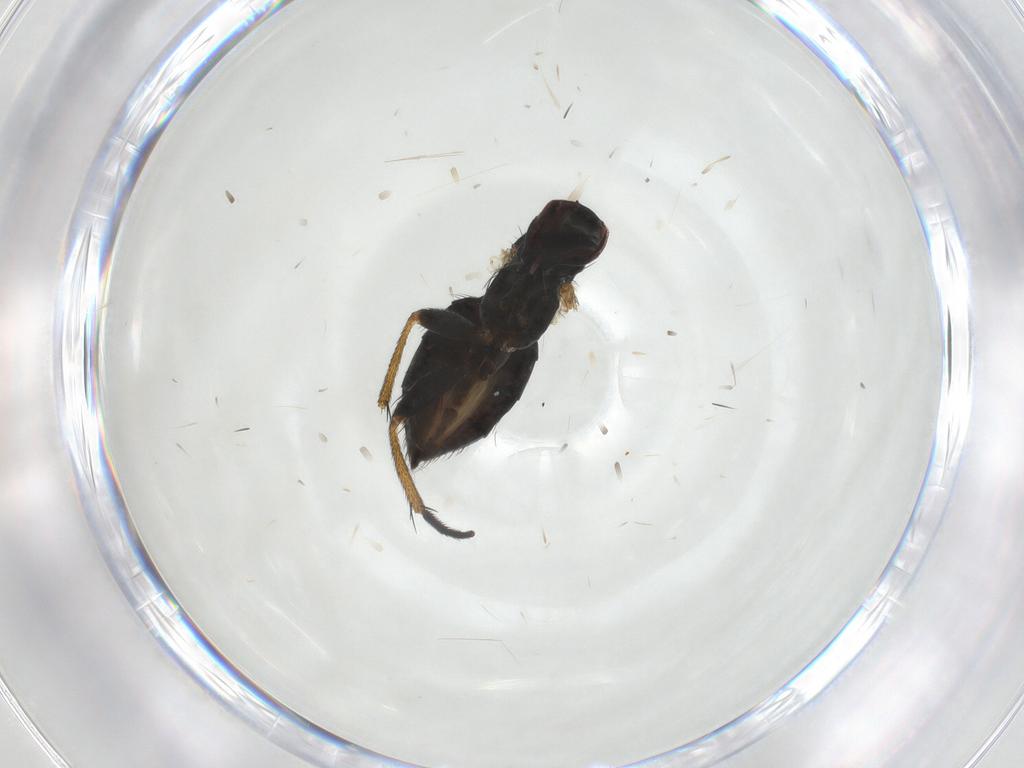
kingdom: Animalia
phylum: Arthropoda
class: Insecta
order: Diptera
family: Muscidae
